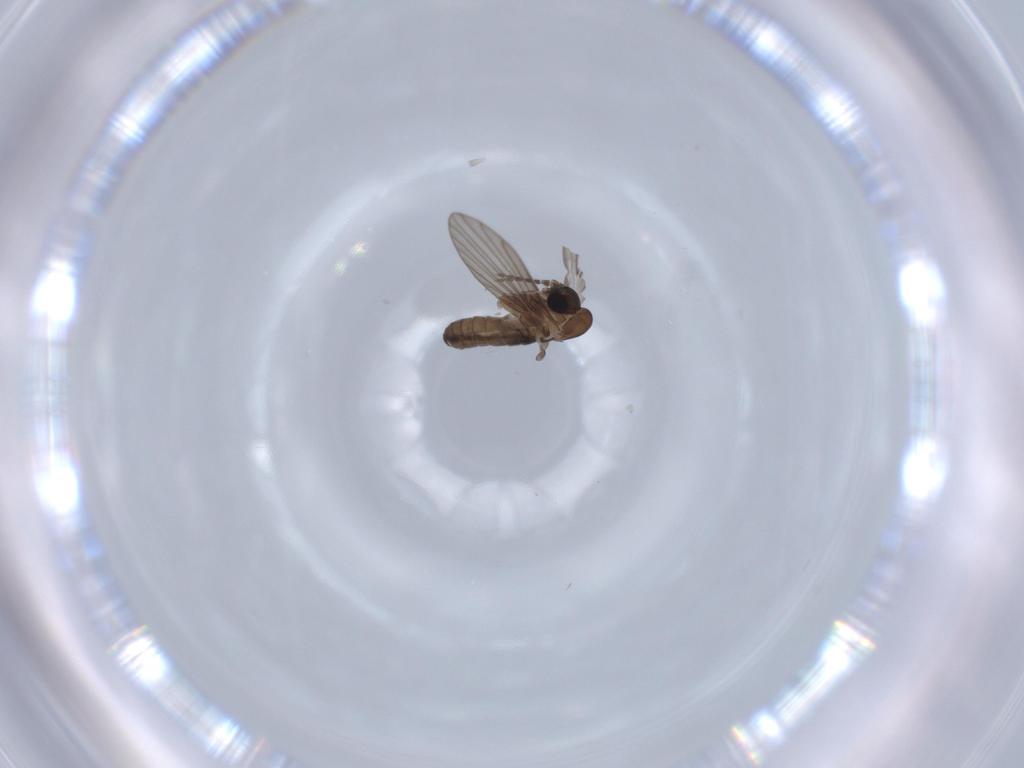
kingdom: Animalia
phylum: Arthropoda
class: Insecta
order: Diptera
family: Psychodidae
